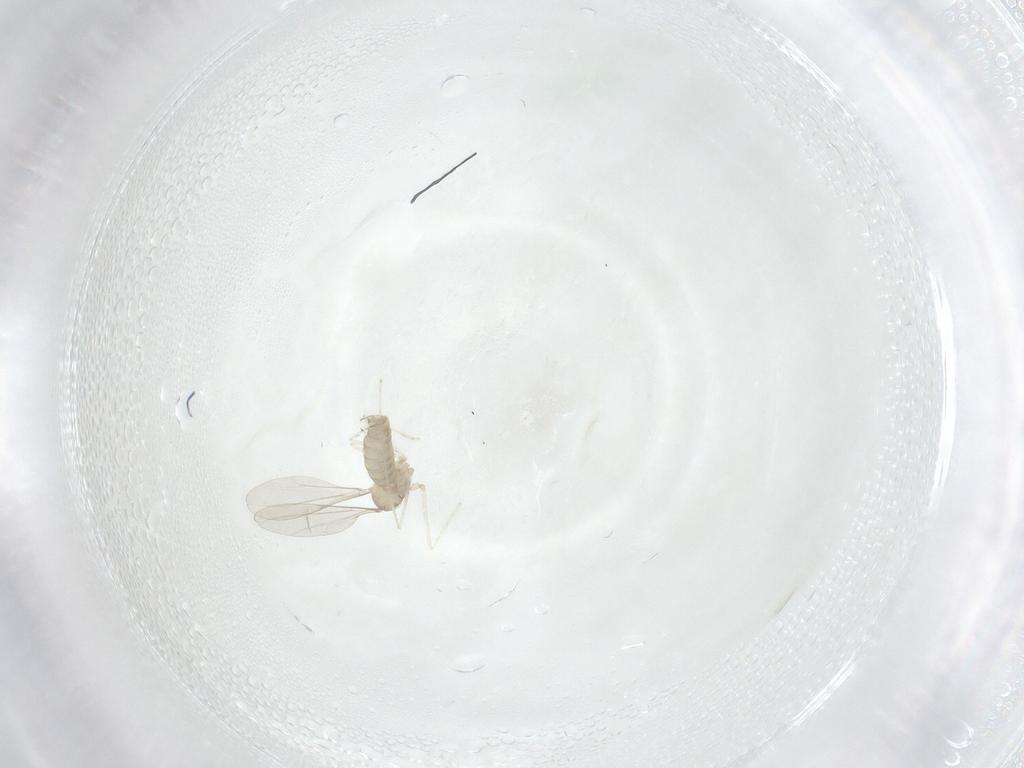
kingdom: Animalia
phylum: Arthropoda
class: Insecta
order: Diptera
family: Cecidomyiidae
